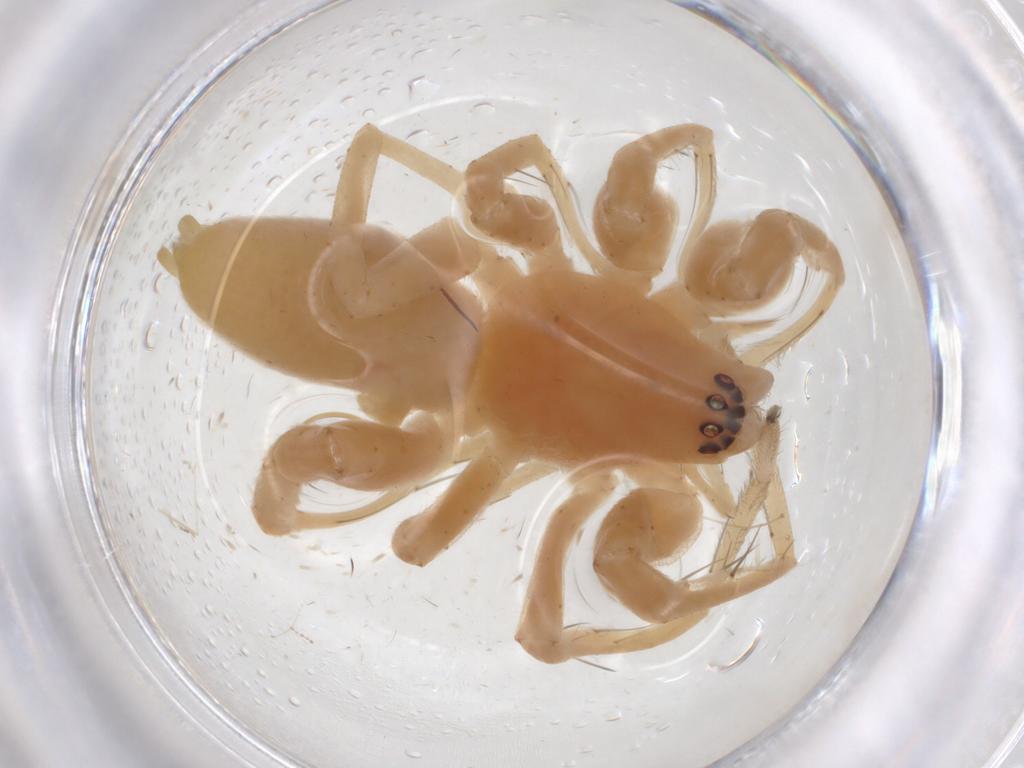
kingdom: Animalia
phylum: Arthropoda
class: Arachnida
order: Araneae
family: Anyphaenidae
